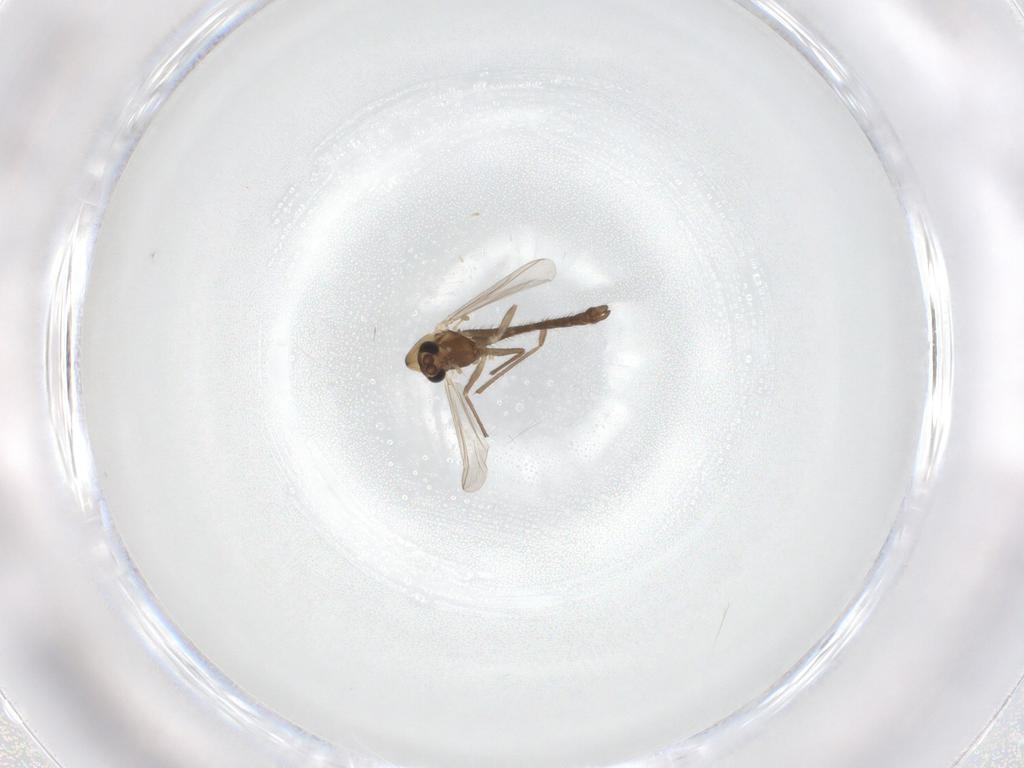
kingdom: Animalia
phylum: Arthropoda
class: Insecta
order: Diptera
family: Chironomidae
